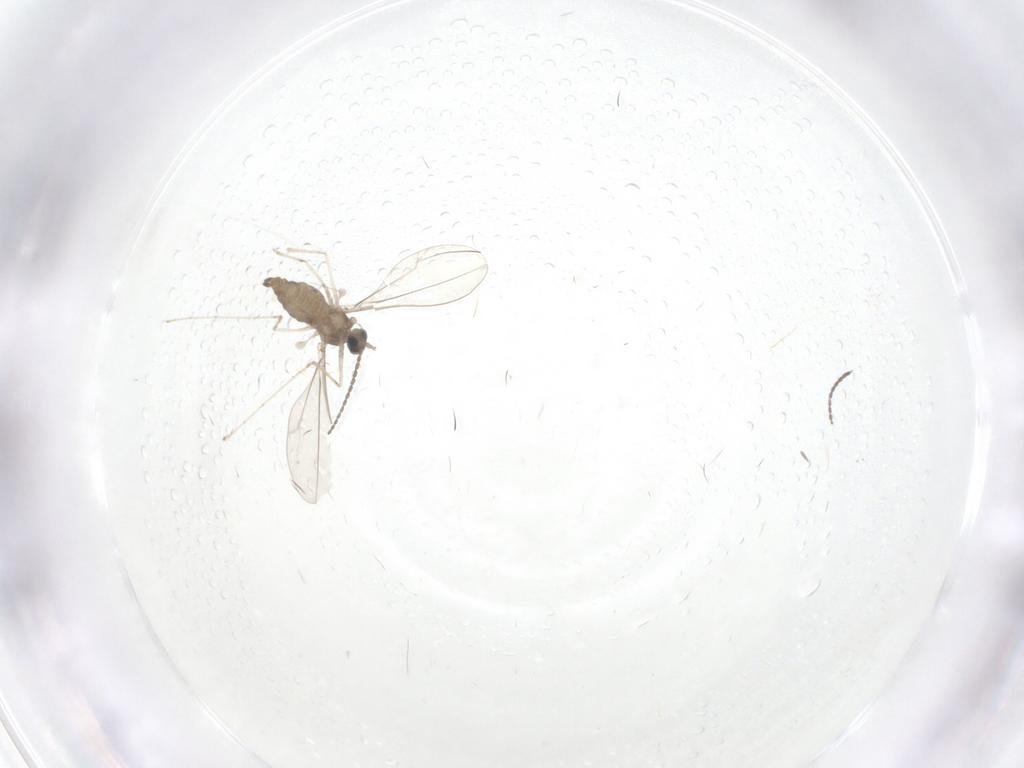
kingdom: Animalia
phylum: Arthropoda
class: Insecta
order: Diptera
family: Cecidomyiidae
